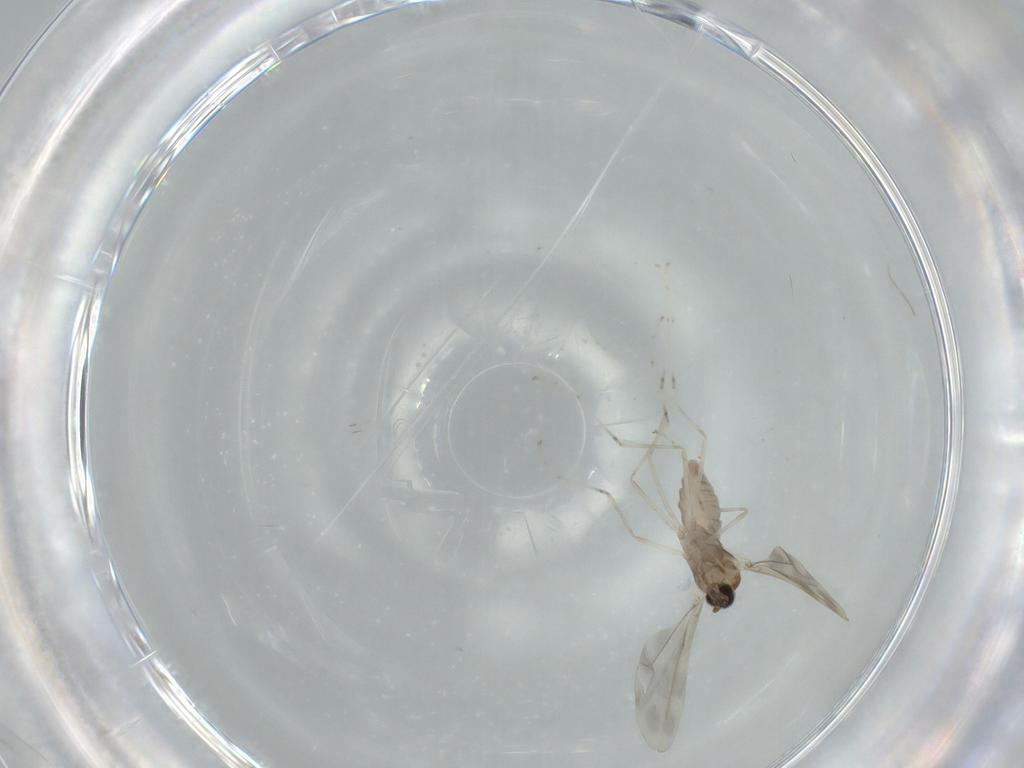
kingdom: Animalia
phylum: Arthropoda
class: Insecta
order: Diptera
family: Cecidomyiidae
